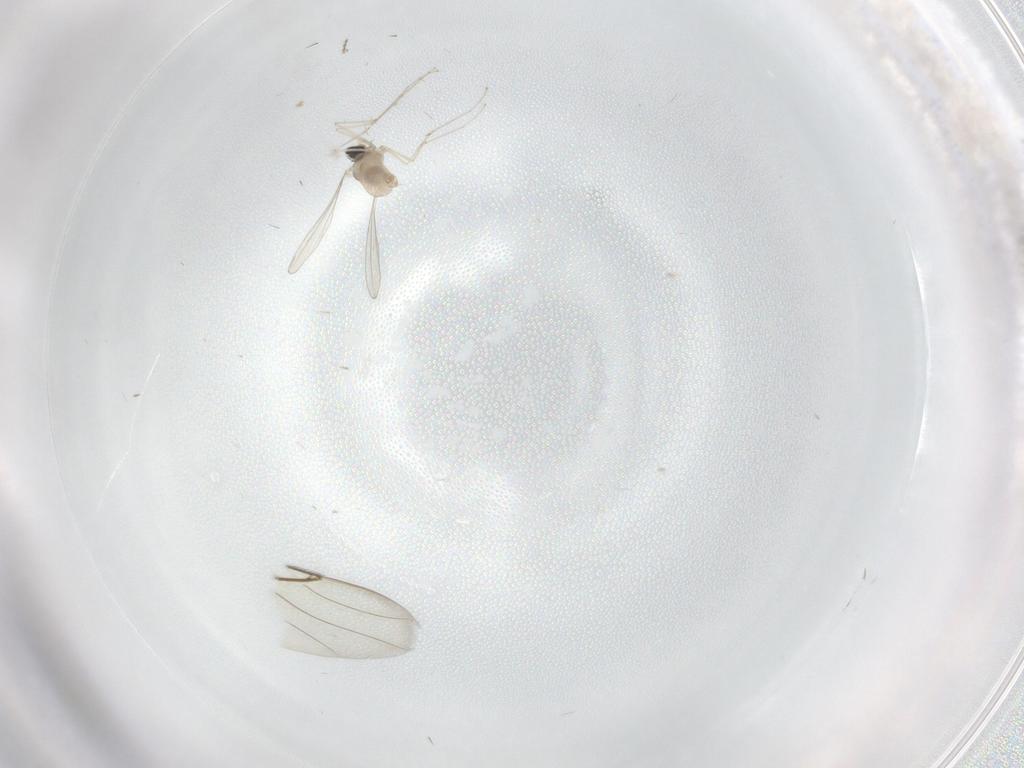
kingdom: Animalia
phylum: Arthropoda
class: Insecta
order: Diptera
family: Cecidomyiidae
